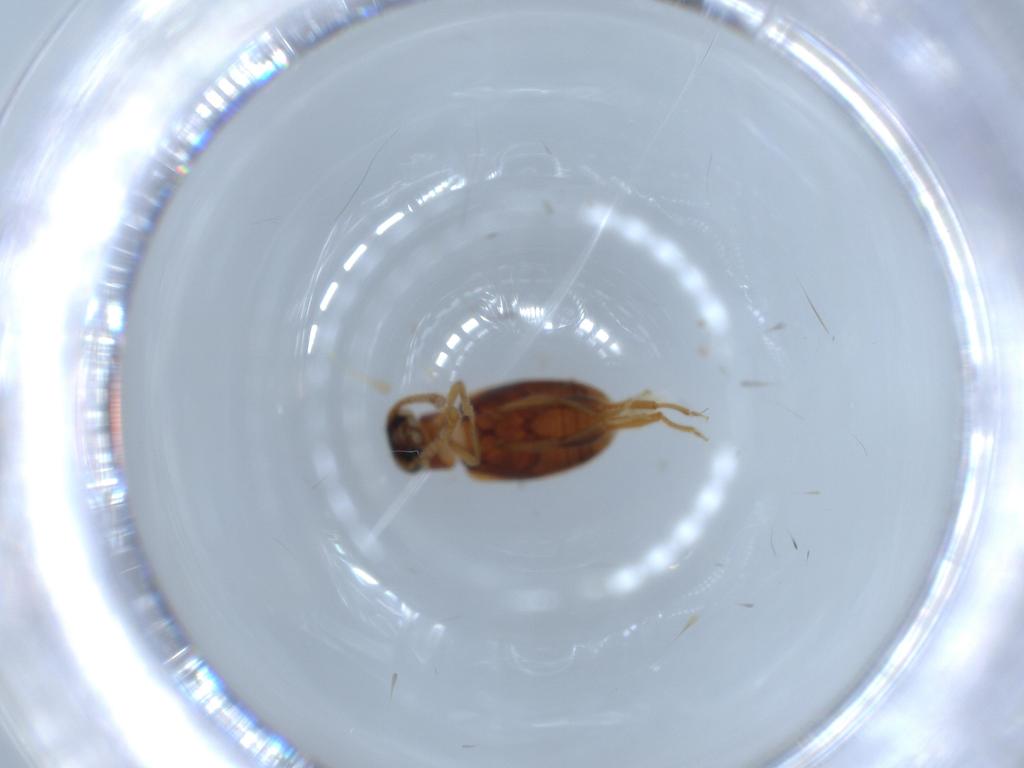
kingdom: Animalia
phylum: Arthropoda
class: Insecta
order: Coleoptera
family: Aderidae
